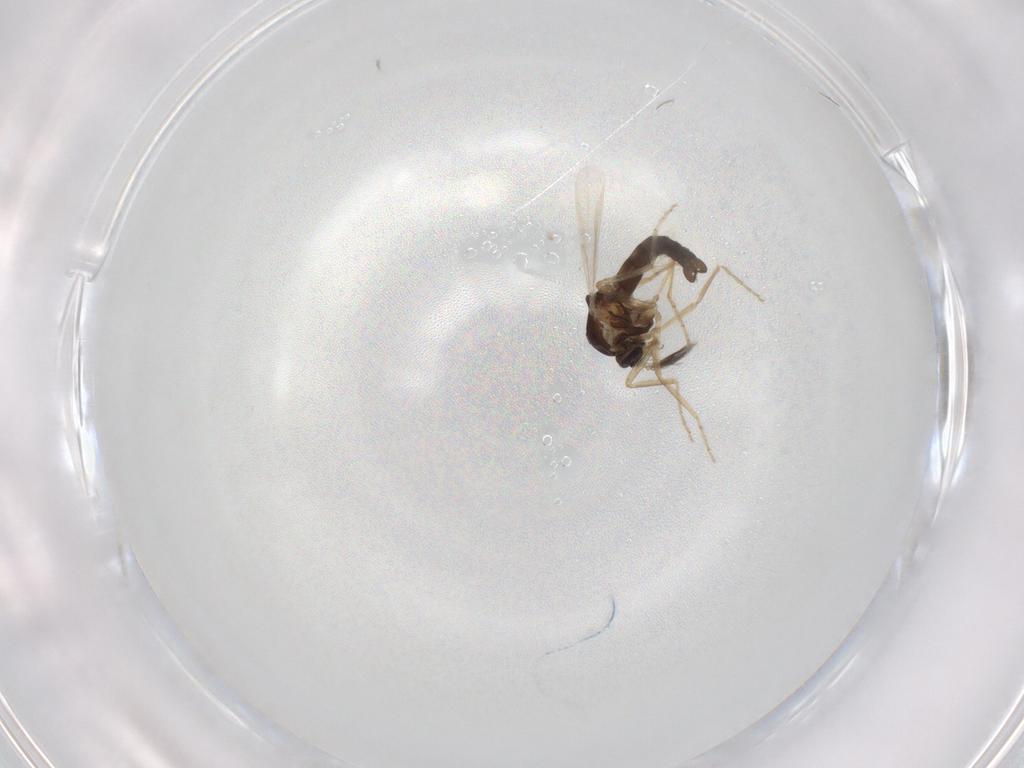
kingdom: Animalia
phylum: Arthropoda
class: Insecta
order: Diptera
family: Ceratopogonidae
